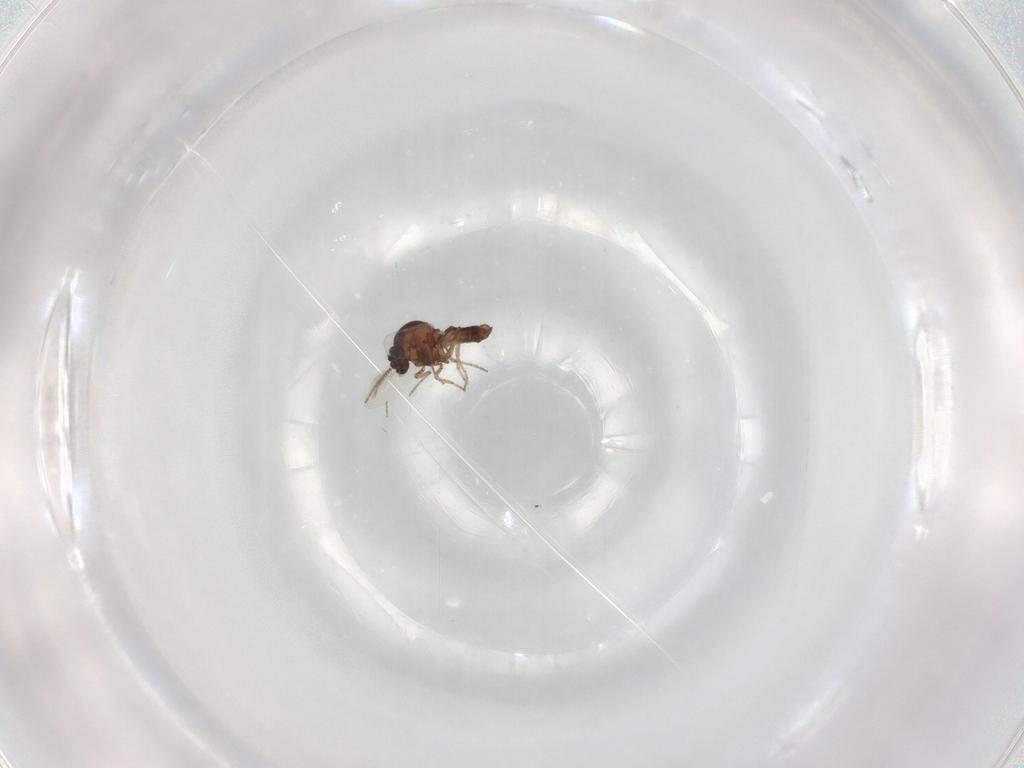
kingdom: Animalia
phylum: Arthropoda
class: Insecta
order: Diptera
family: Ceratopogonidae
